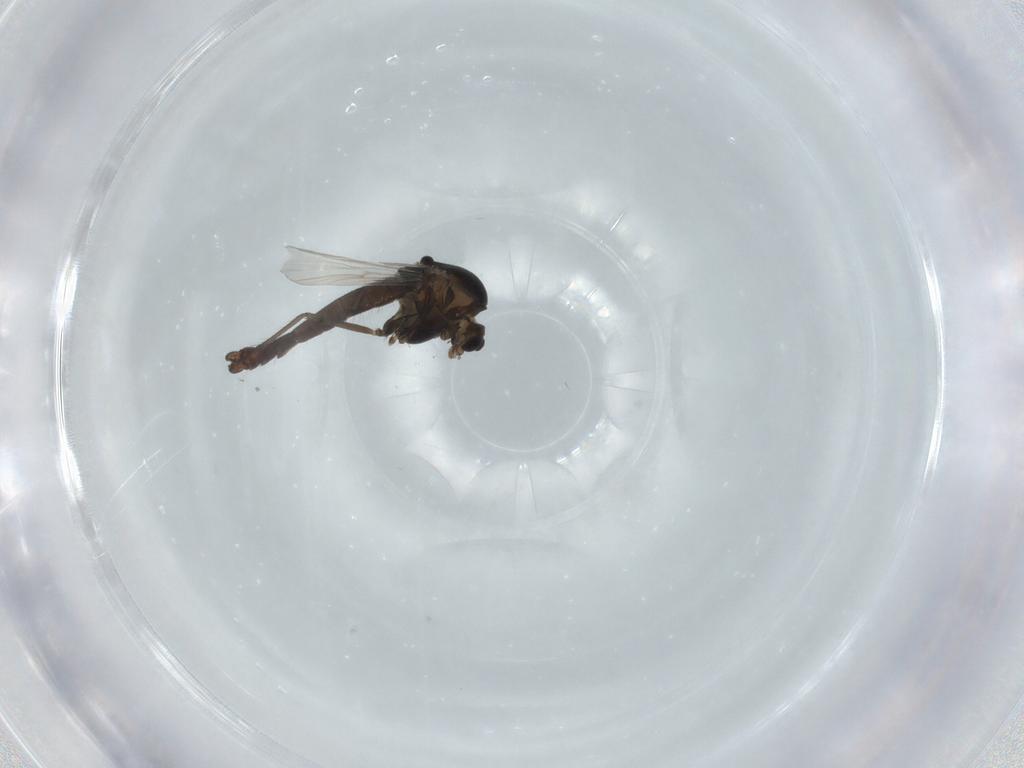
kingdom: Animalia
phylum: Arthropoda
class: Insecta
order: Diptera
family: Chironomidae
